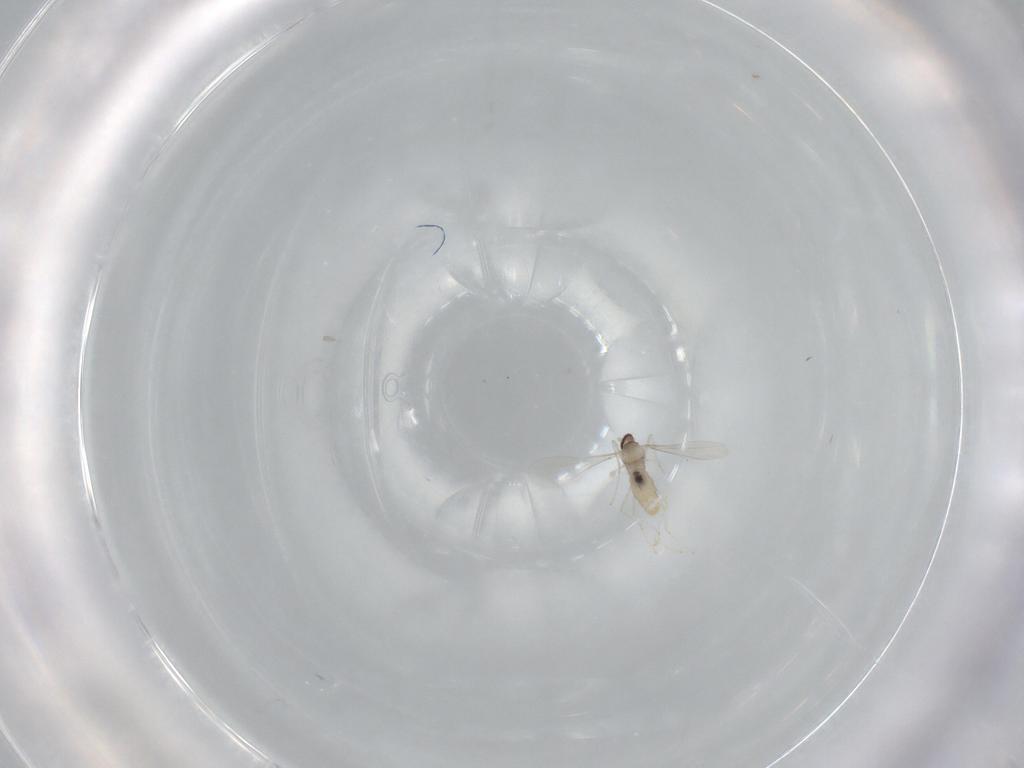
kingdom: Animalia
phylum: Arthropoda
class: Insecta
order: Diptera
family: Cecidomyiidae
